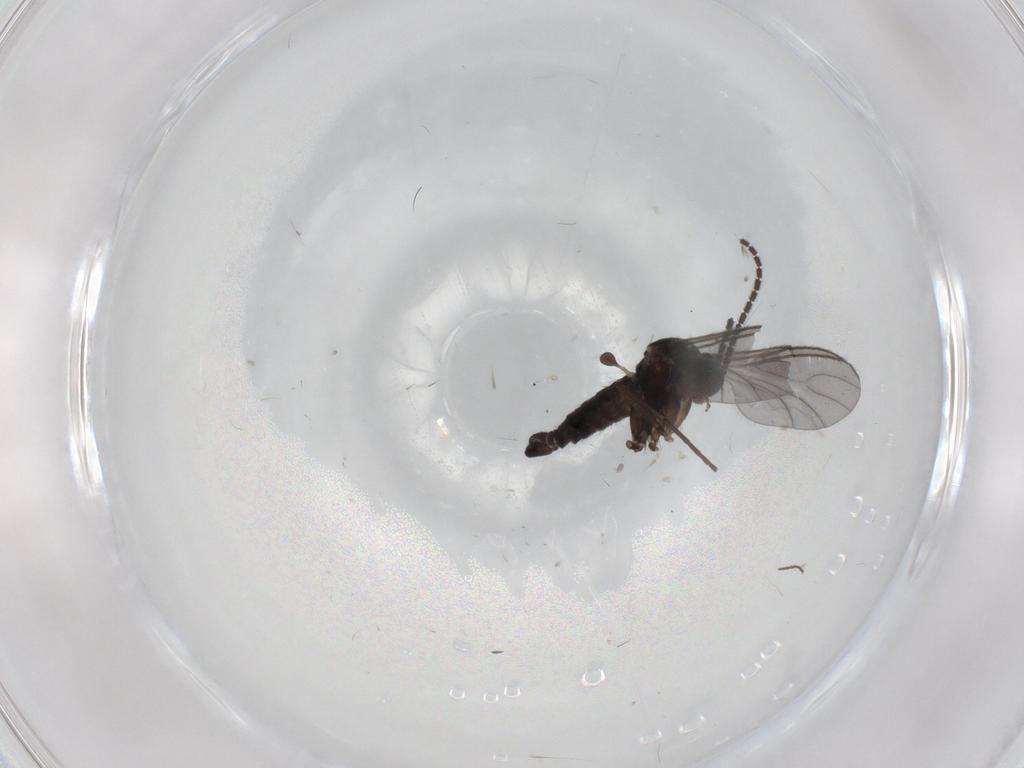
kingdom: Animalia
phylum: Arthropoda
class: Insecta
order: Diptera
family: Sciaridae
